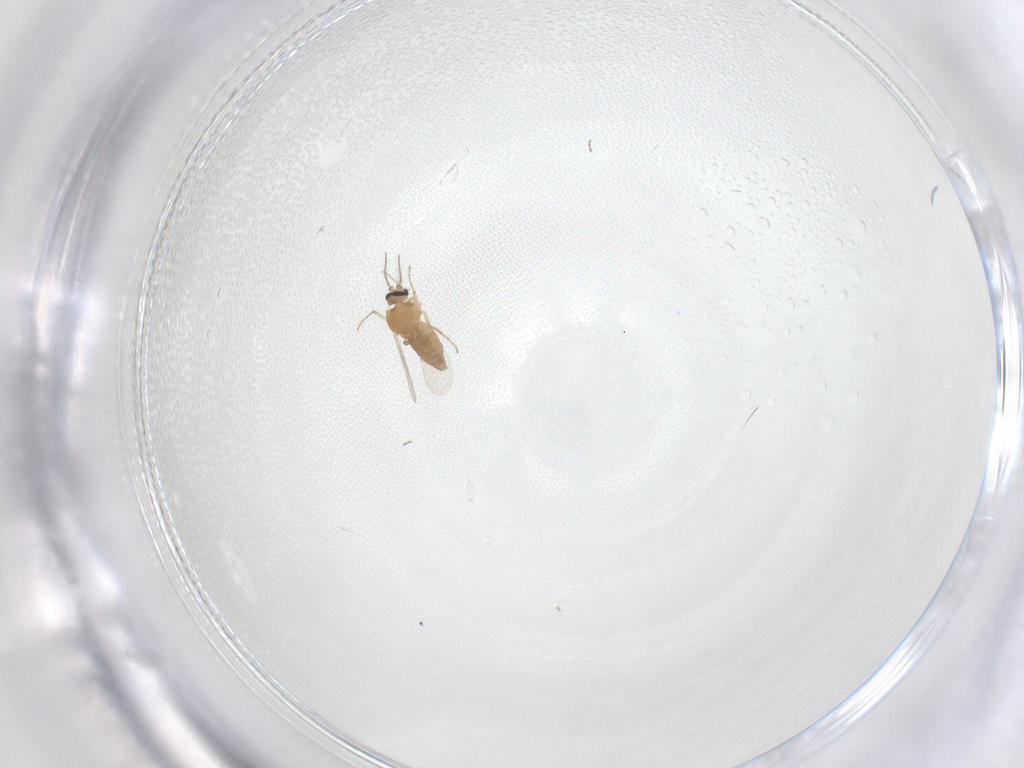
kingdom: Animalia
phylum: Arthropoda
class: Insecta
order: Diptera
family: Ceratopogonidae
